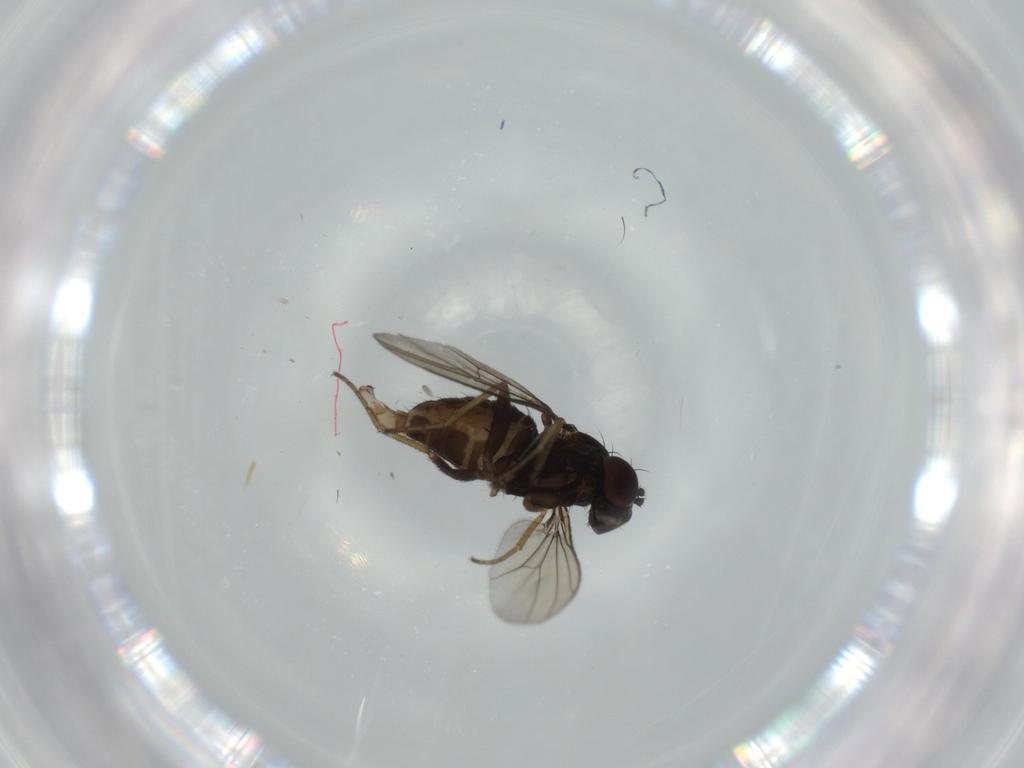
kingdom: Animalia
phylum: Arthropoda
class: Insecta
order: Diptera
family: Dolichopodidae
